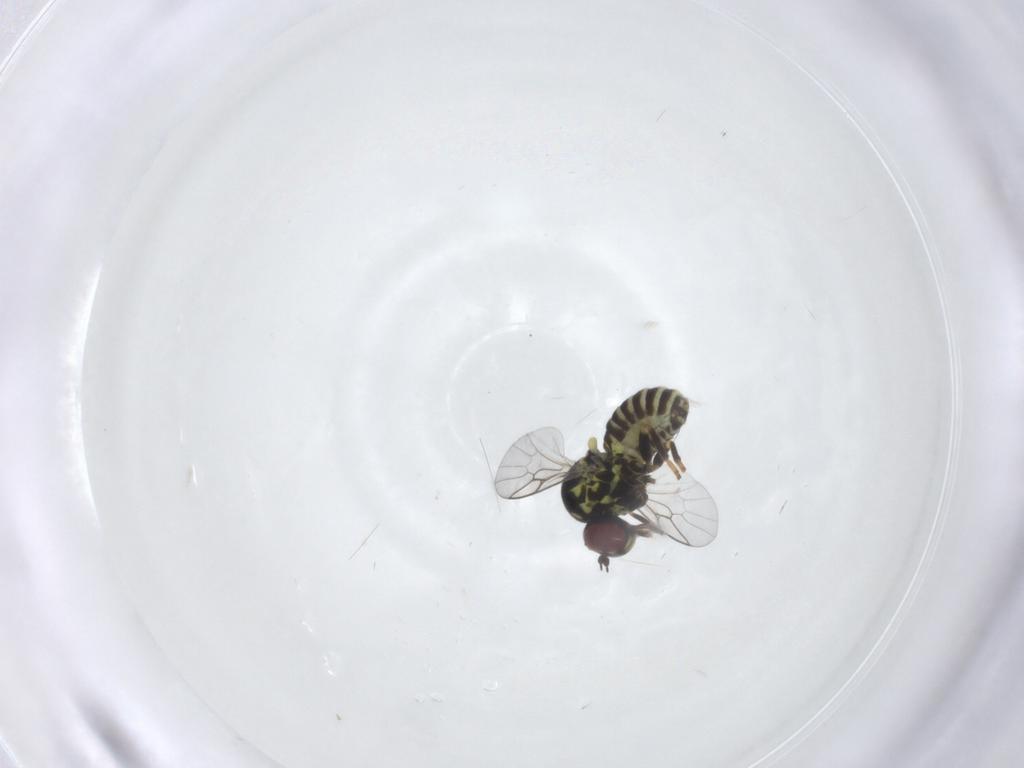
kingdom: Animalia
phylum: Arthropoda
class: Insecta
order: Diptera
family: Mythicomyiidae
